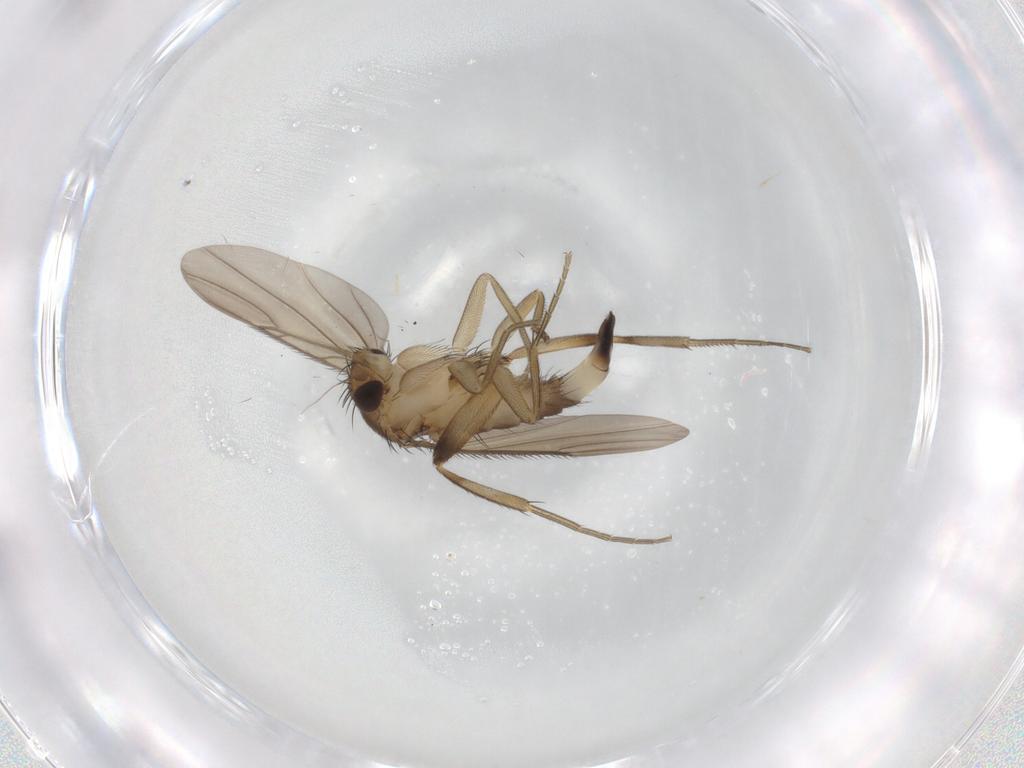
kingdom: Animalia
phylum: Arthropoda
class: Insecta
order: Diptera
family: Phoridae
